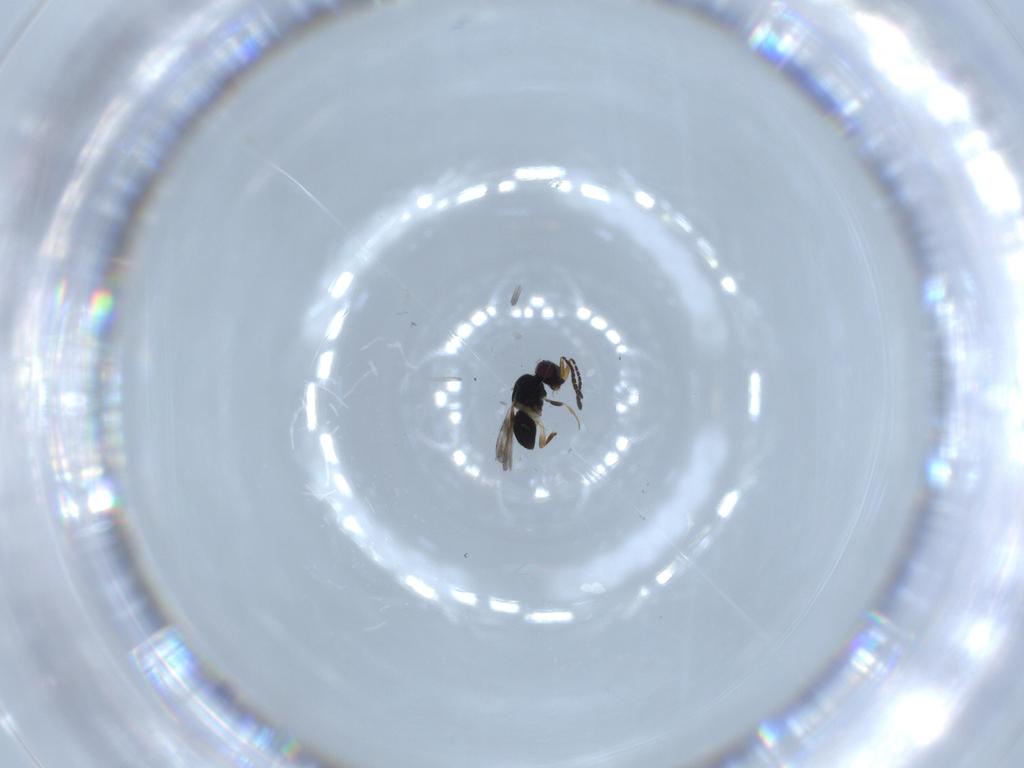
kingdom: Animalia
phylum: Arthropoda
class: Insecta
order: Hymenoptera
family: Ceraphronidae
